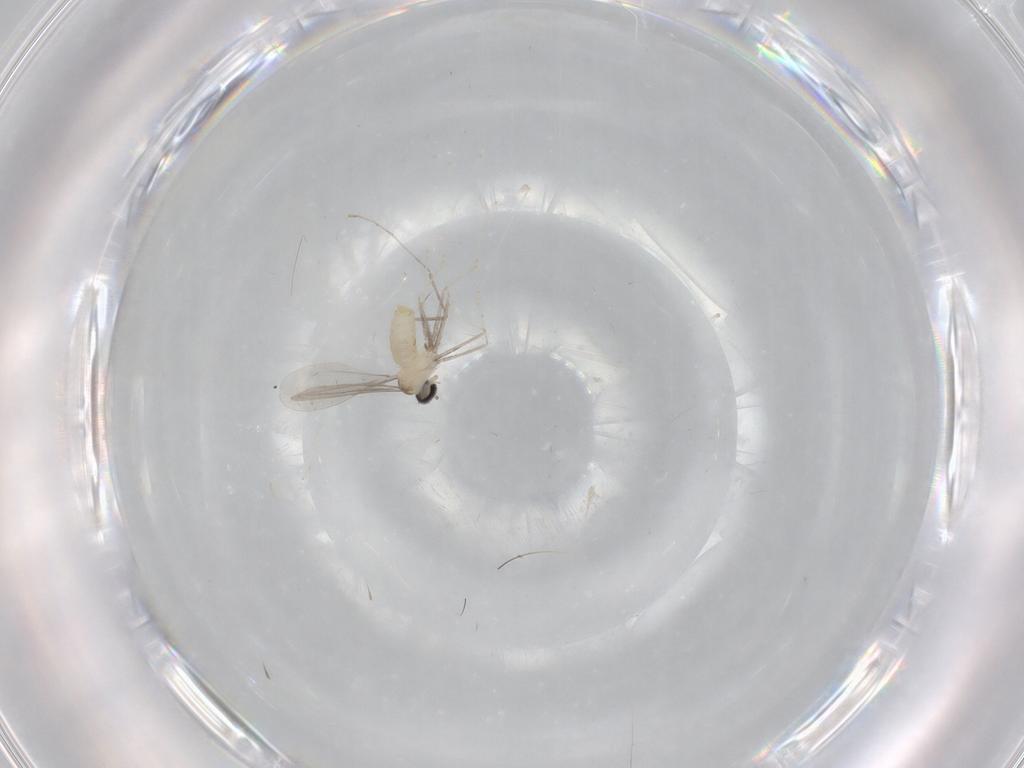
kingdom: Animalia
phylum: Arthropoda
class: Insecta
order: Diptera
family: Cecidomyiidae
